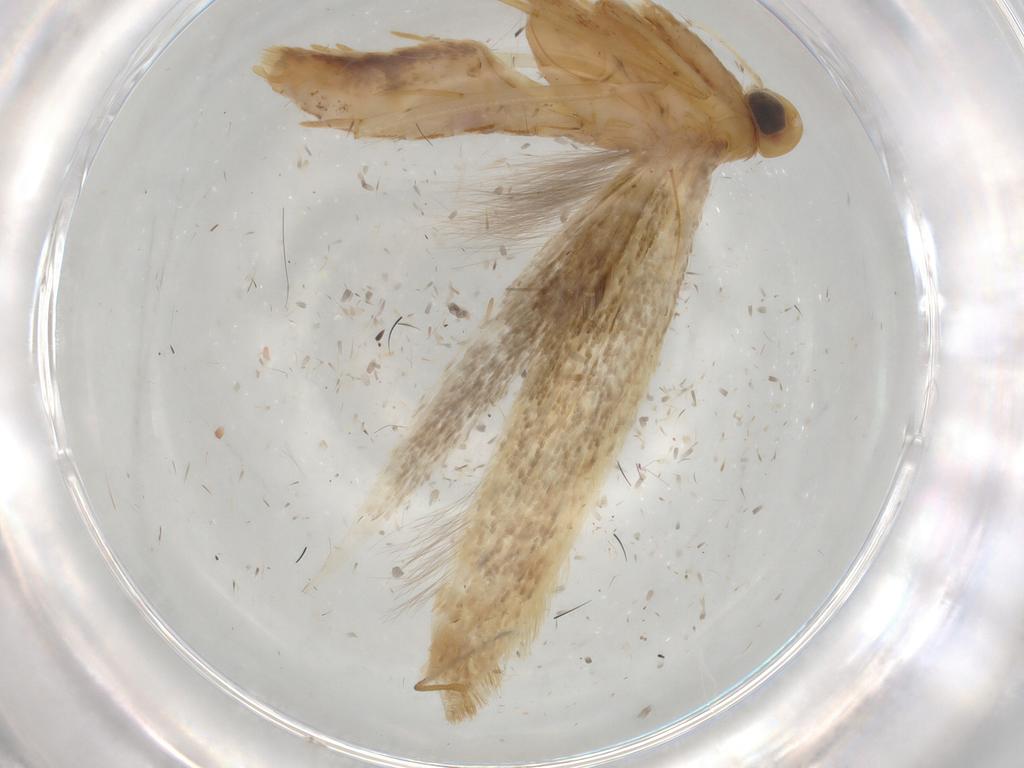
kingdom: Animalia
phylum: Arthropoda
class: Insecta
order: Lepidoptera
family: Coleophoridae
